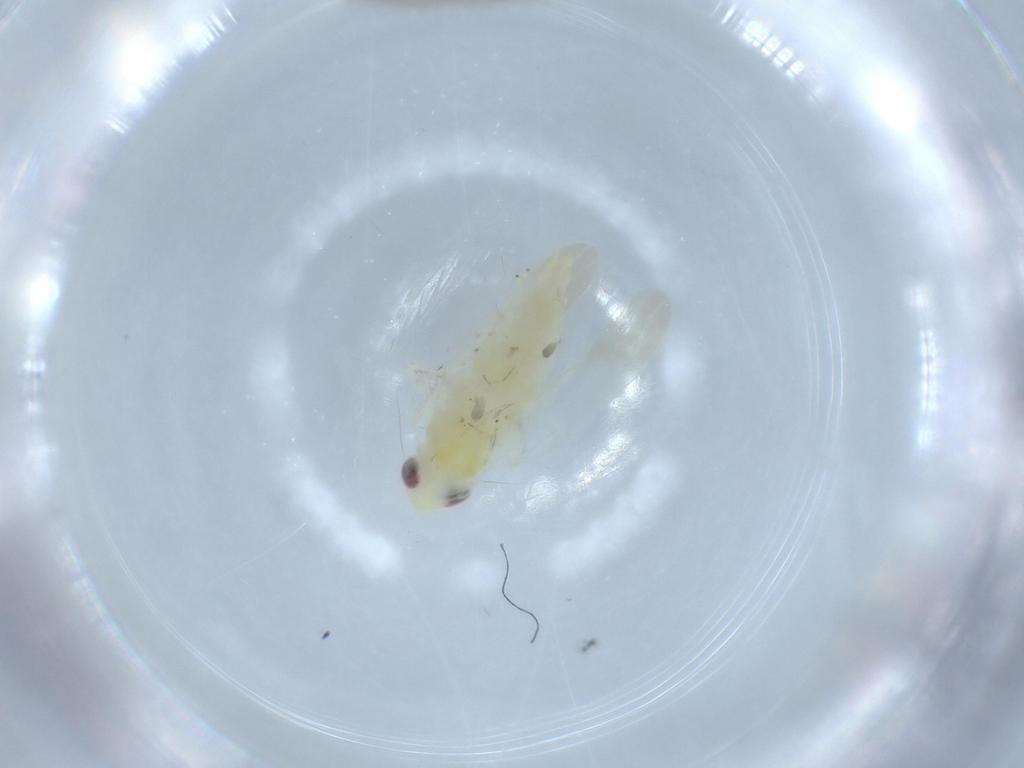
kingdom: Animalia
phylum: Arthropoda
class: Insecta
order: Hemiptera
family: Cicadellidae
